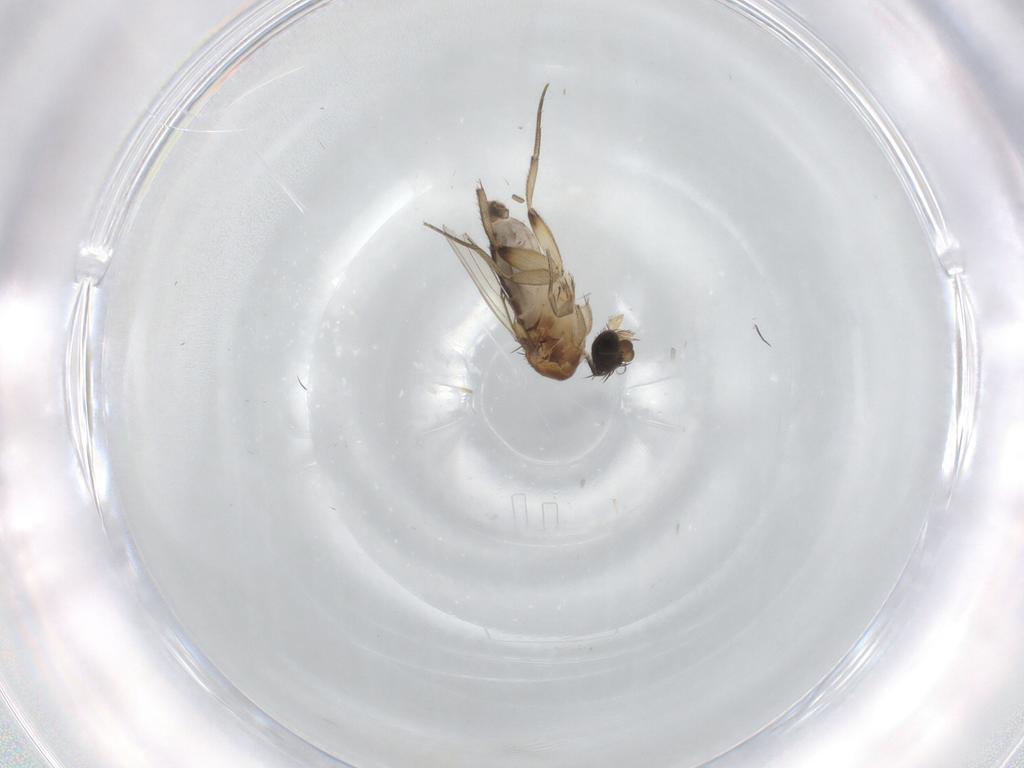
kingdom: Animalia
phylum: Arthropoda
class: Insecta
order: Diptera
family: Phoridae
